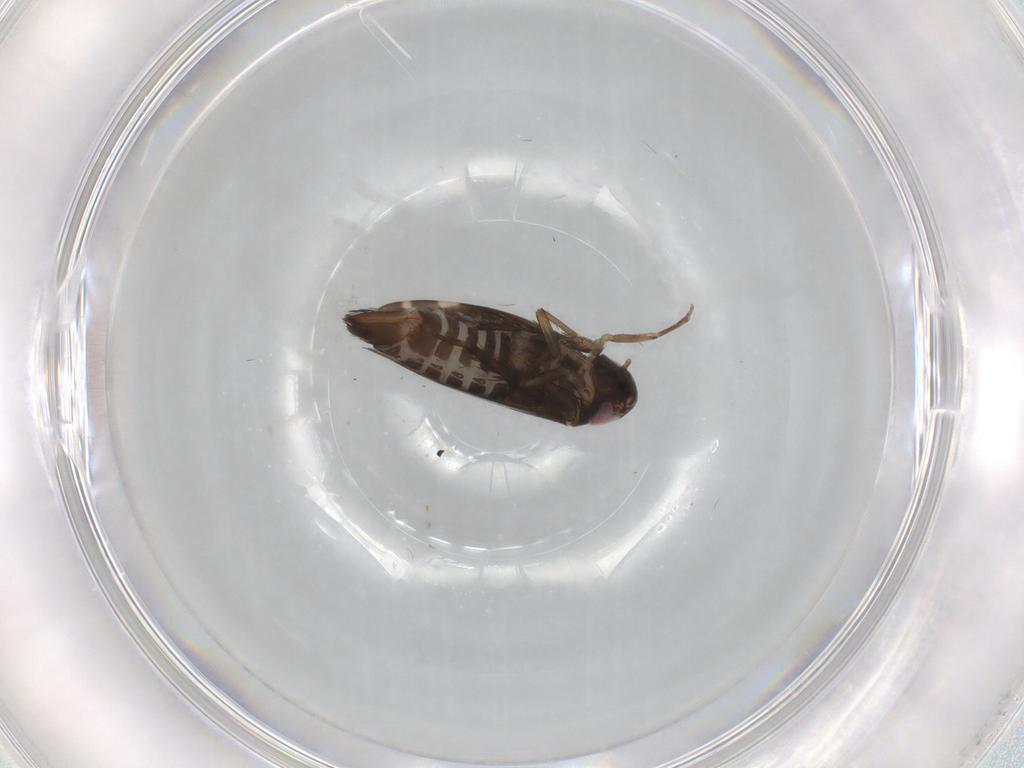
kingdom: Animalia
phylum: Arthropoda
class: Insecta
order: Hemiptera
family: Cicadellidae
